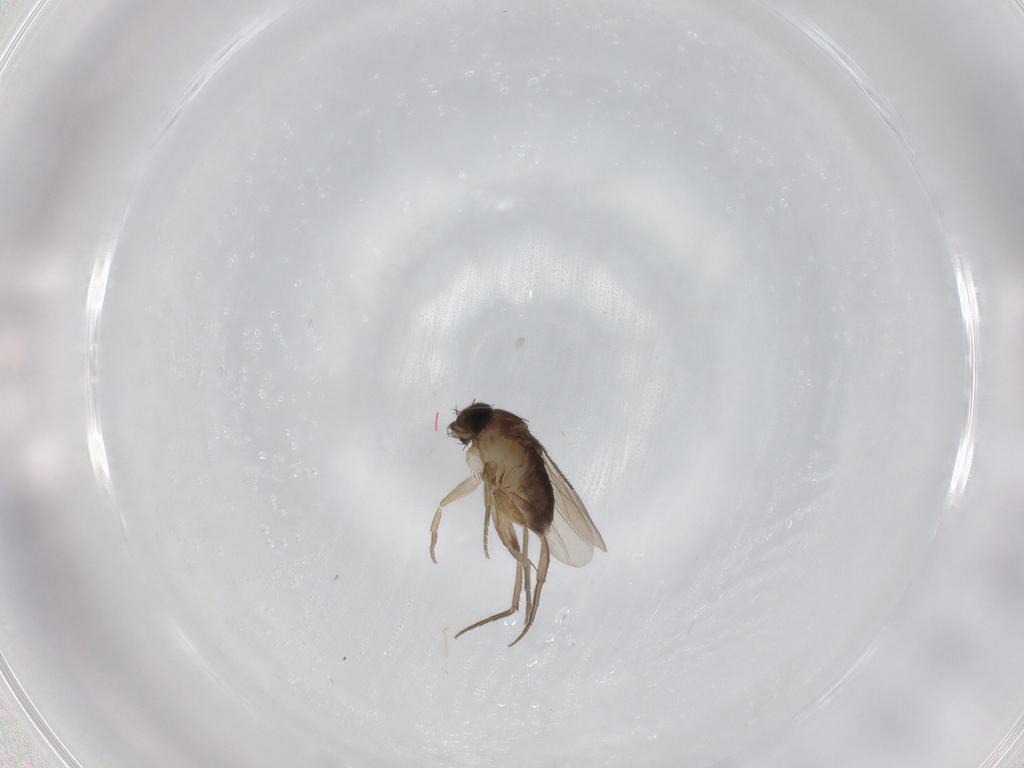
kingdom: Animalia
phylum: Arthropoda
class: Insecta
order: Diptera
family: Phoridae
